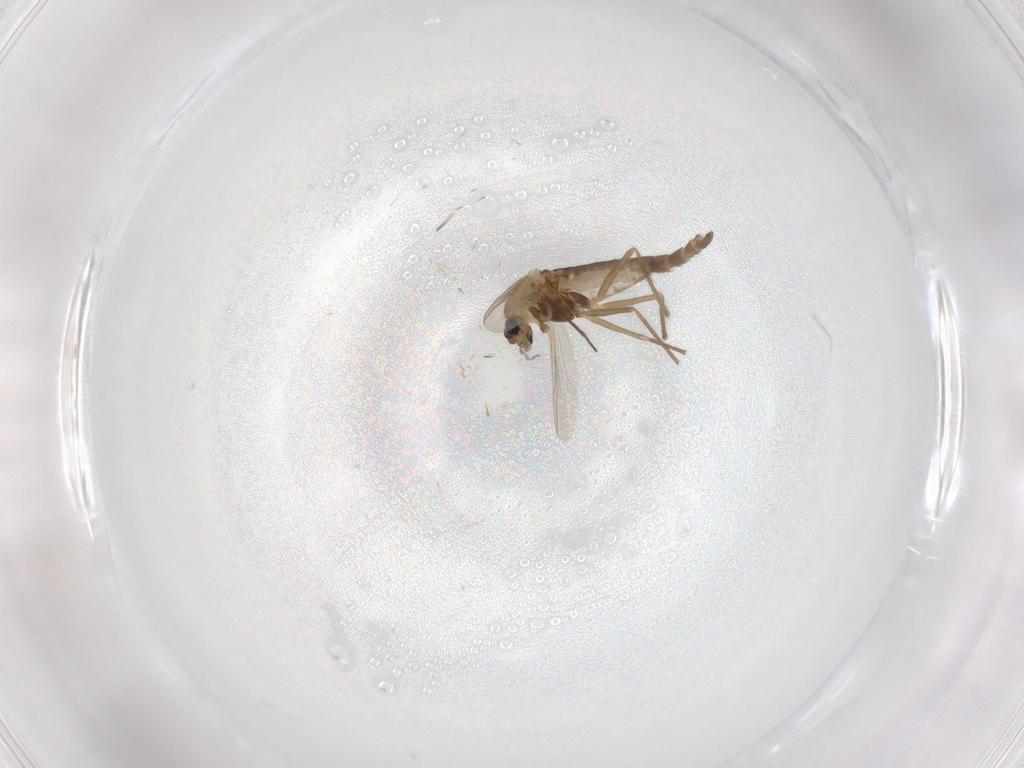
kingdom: Animalia
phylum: Arthropoda
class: Insecta
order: Diptera
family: Chironomidae
